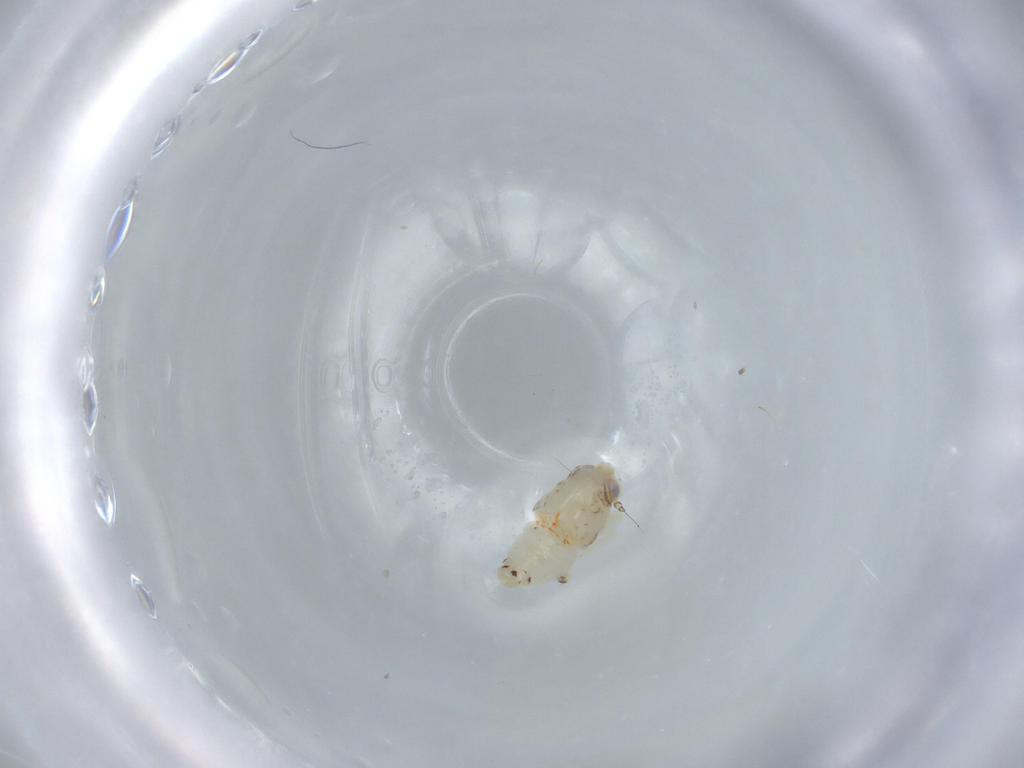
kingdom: Animalia
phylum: Arthropoda
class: Insecta
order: Hemiptera
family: Nogodinidae
